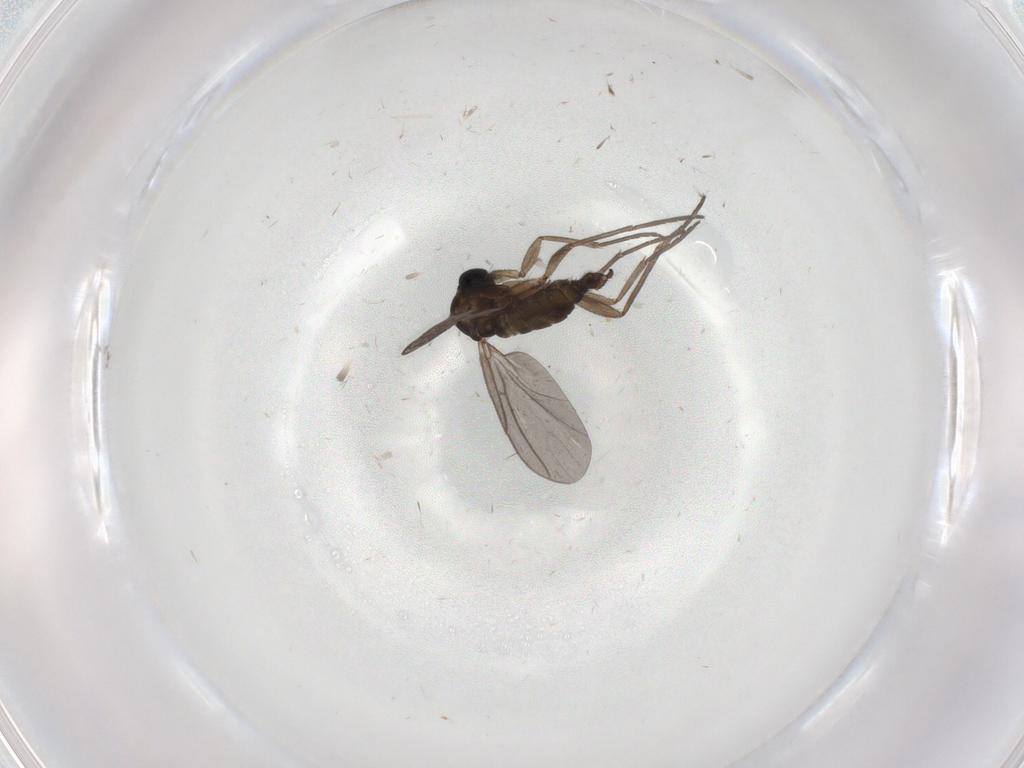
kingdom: Animalia
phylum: Arthropoda
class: Insecta
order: Diptera
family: Sciaridae
